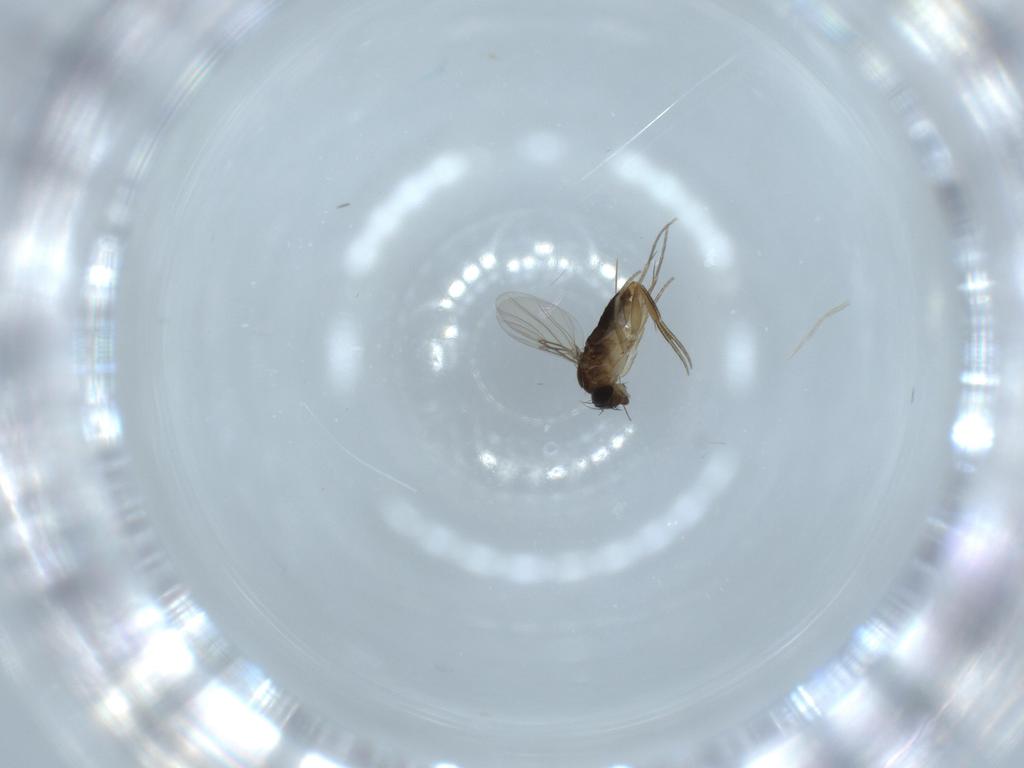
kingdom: Animalia
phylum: Arthropoda
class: Insecta
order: Diptera
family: Phoridae
